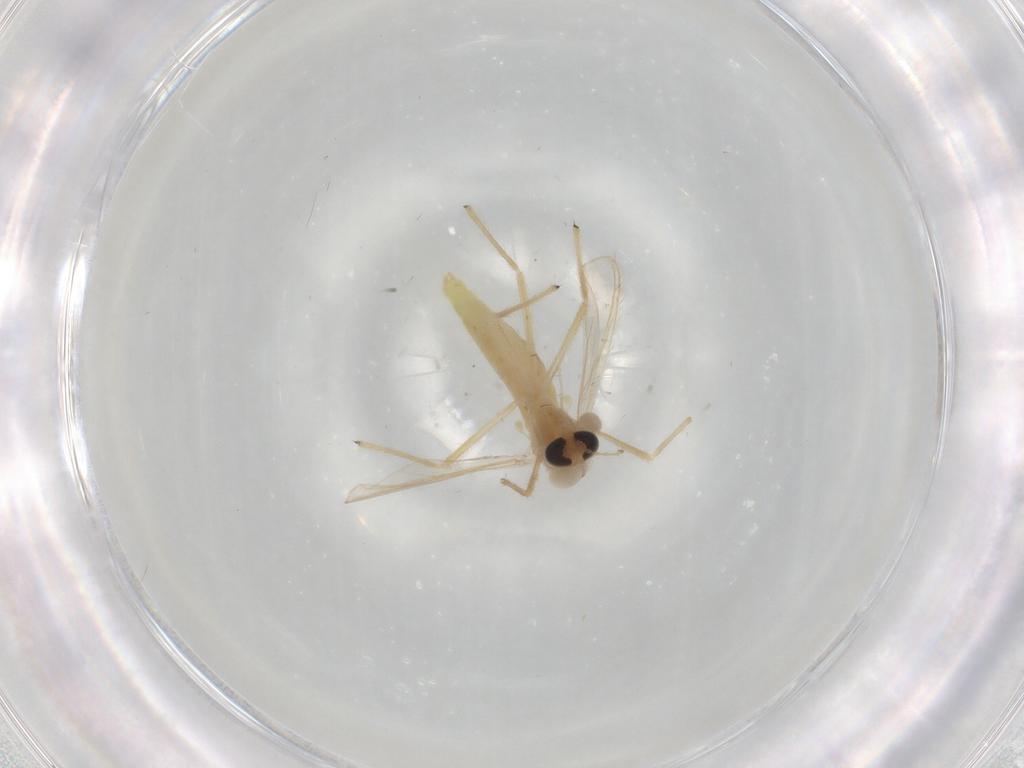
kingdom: Animalia
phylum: Arthropoda
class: Insecta
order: Diptera
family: Chironomidae
